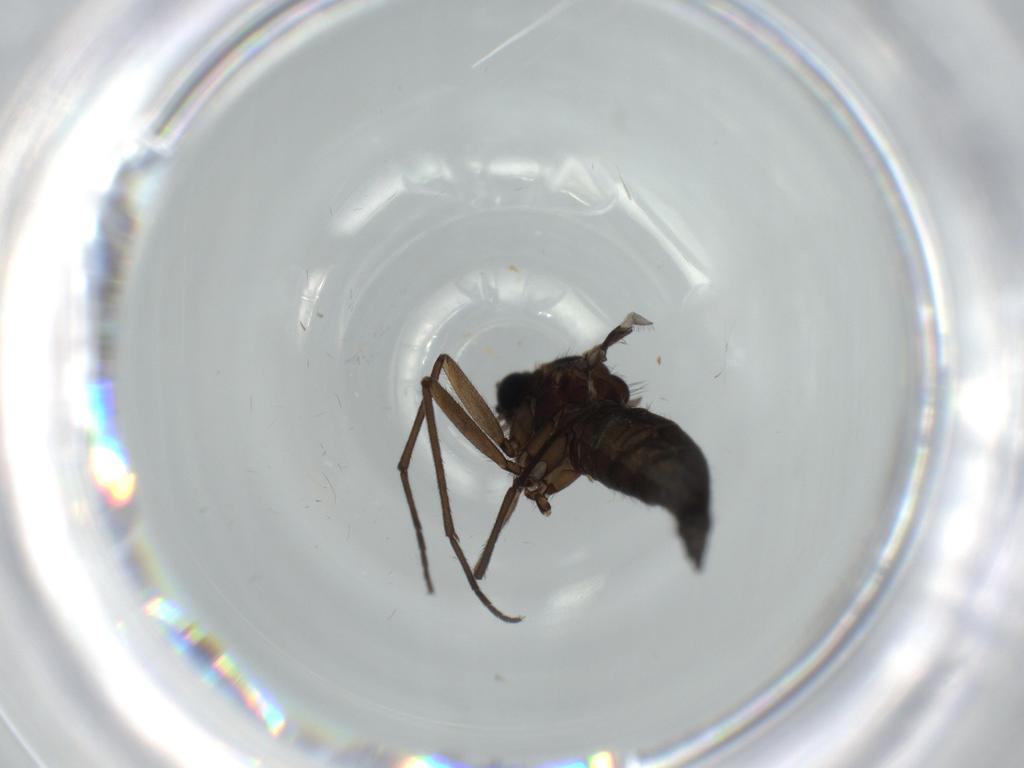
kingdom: Animalia
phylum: Arthropoda
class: Insecta
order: Diptera
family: Sciaridae
